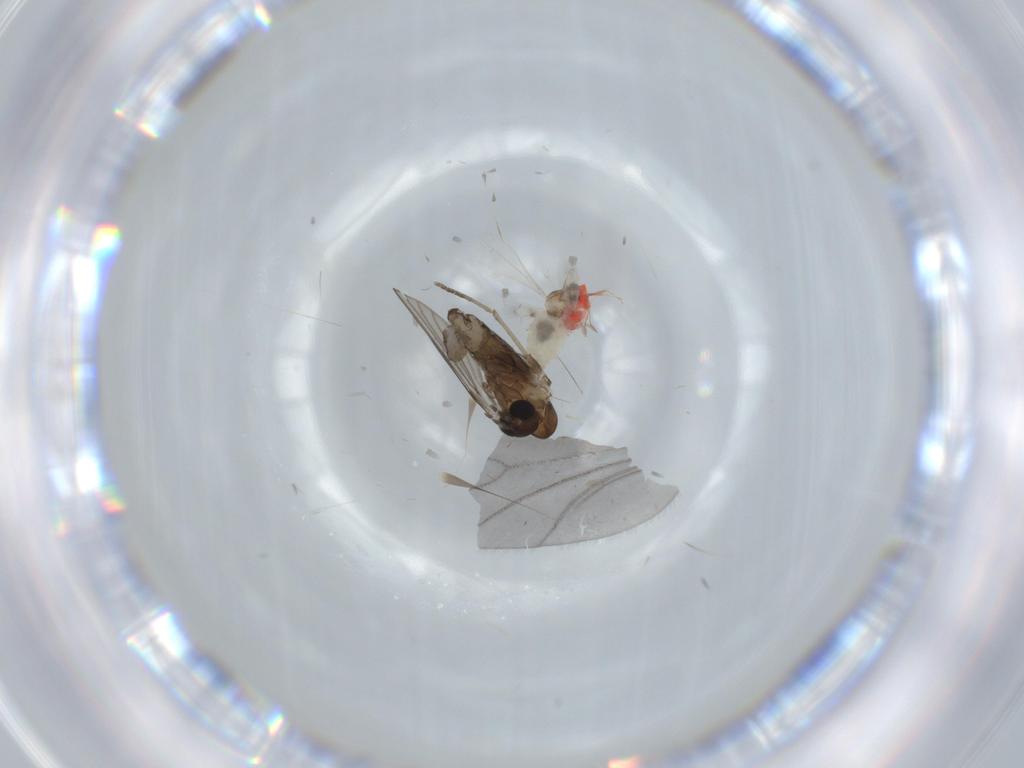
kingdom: Animalia
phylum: Arthropoda
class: Insecta
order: Diptera
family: Cecidomyiidae
